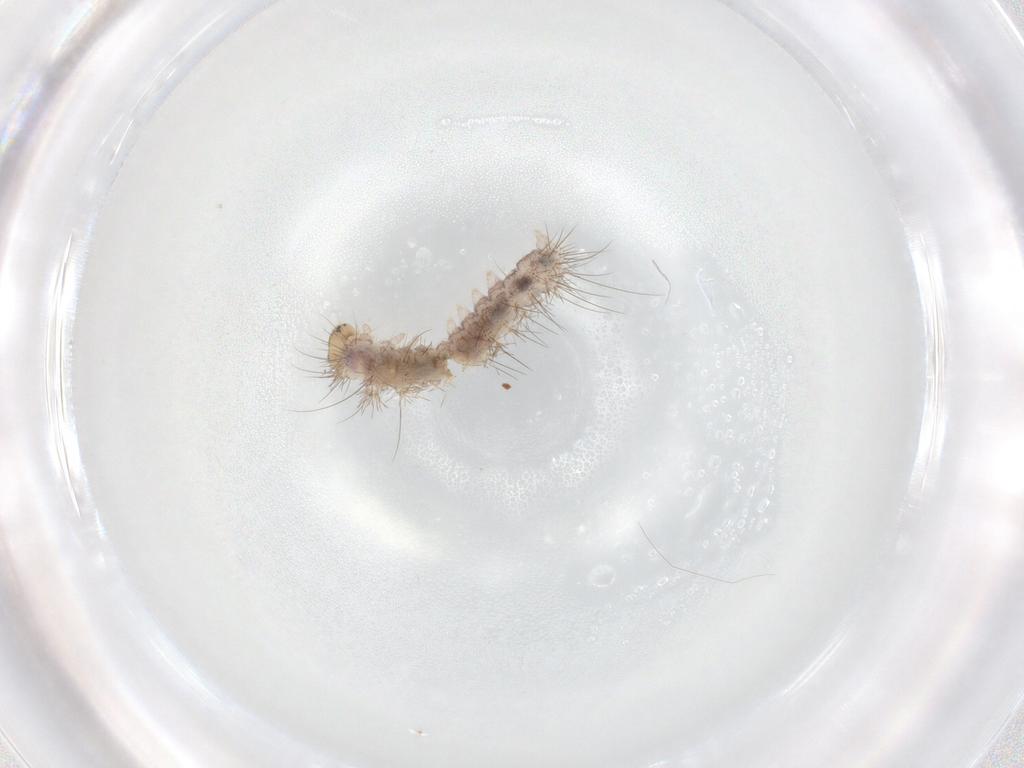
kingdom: Animalia
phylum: Arthropoda
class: Insecta
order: Lepidoptera
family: Erebidae
